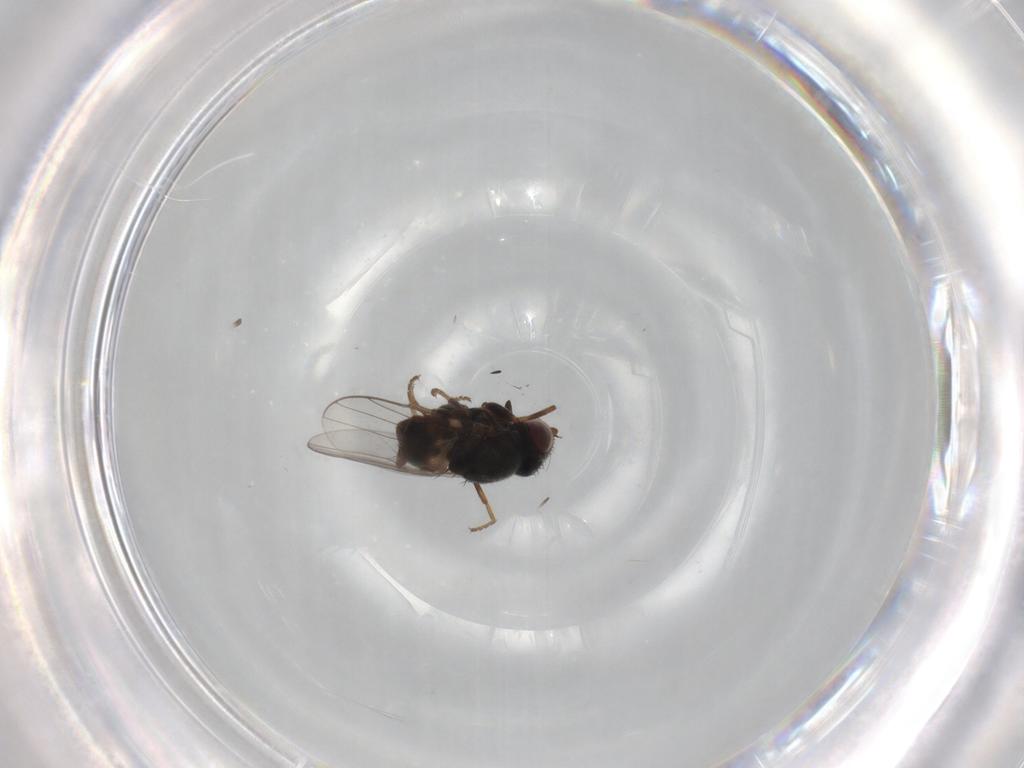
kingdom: Animalia
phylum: Arthropoda
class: Insecta
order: Diptera
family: Chloropidae
